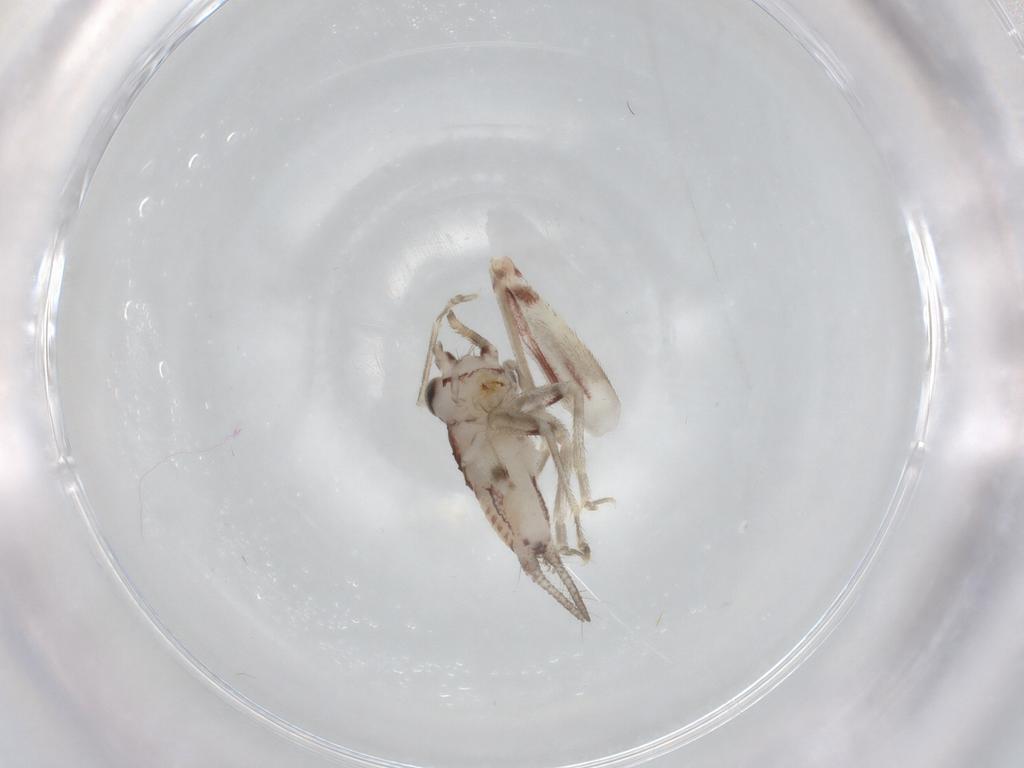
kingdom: Animalia
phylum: Arthropoda
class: Insecta
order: Orthoptera
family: Trigonidiidae
